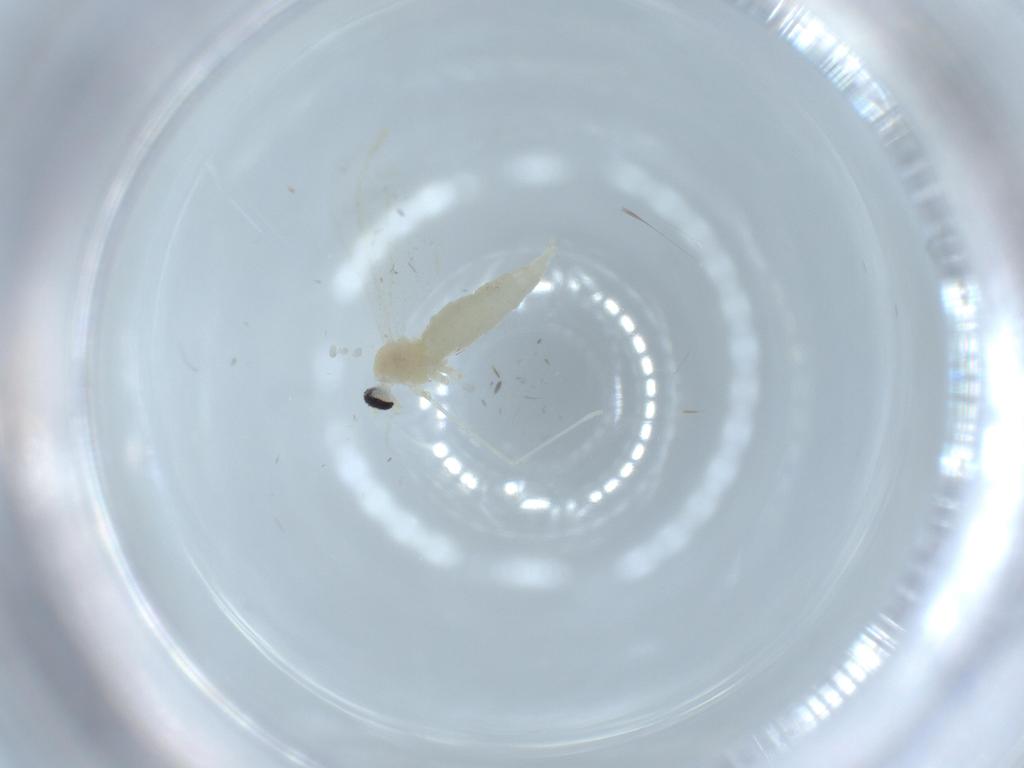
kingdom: Animalia
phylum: Arthropoda
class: Insecta
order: Diptera
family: Cecidomyiidae
